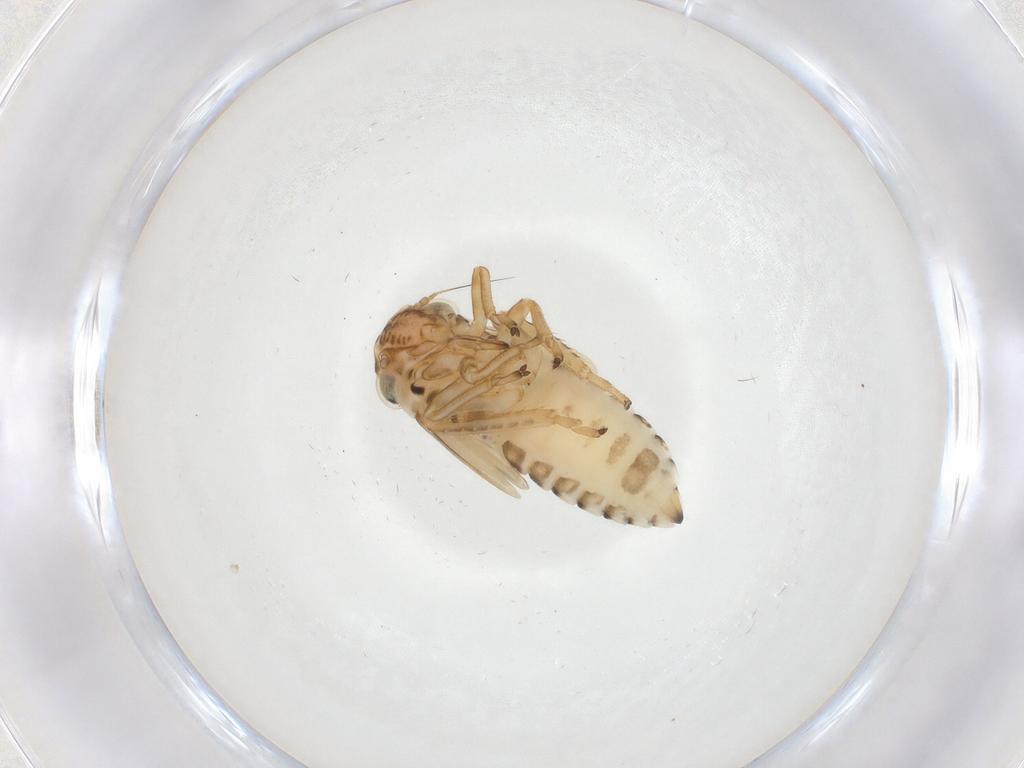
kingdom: Animalia
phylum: Arthropoda
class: Insecta
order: Hemiptera
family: Cicadellidae
